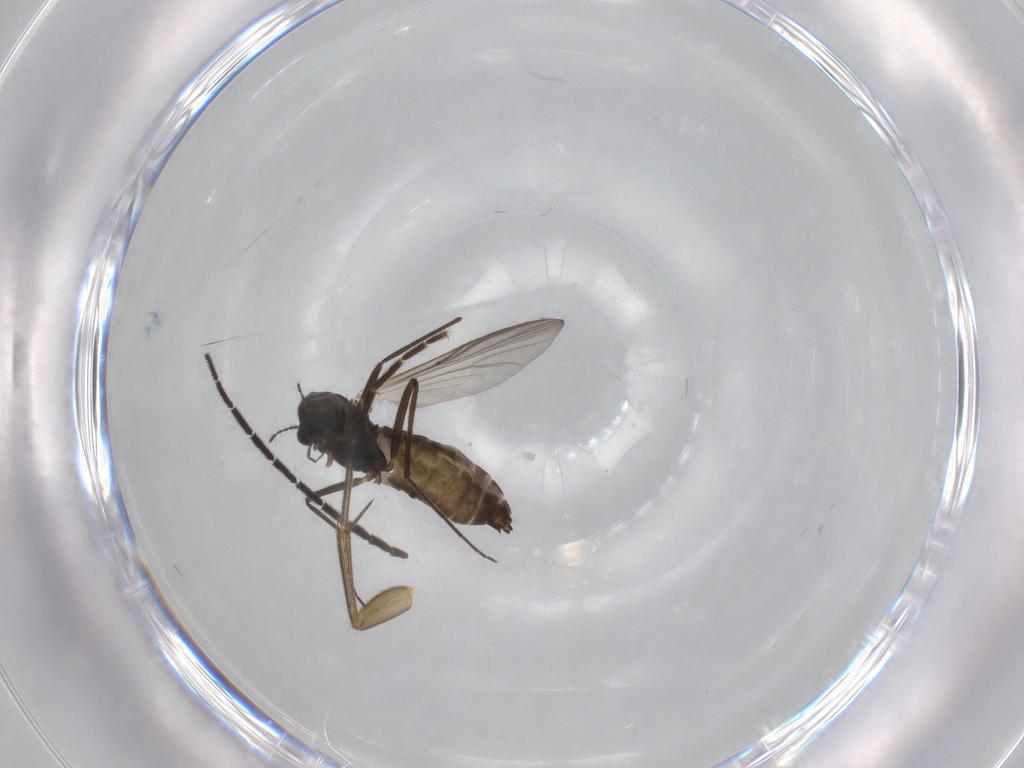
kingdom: Animalia
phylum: Arthropoda
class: Insecta
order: Diptera
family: Chironomidae
